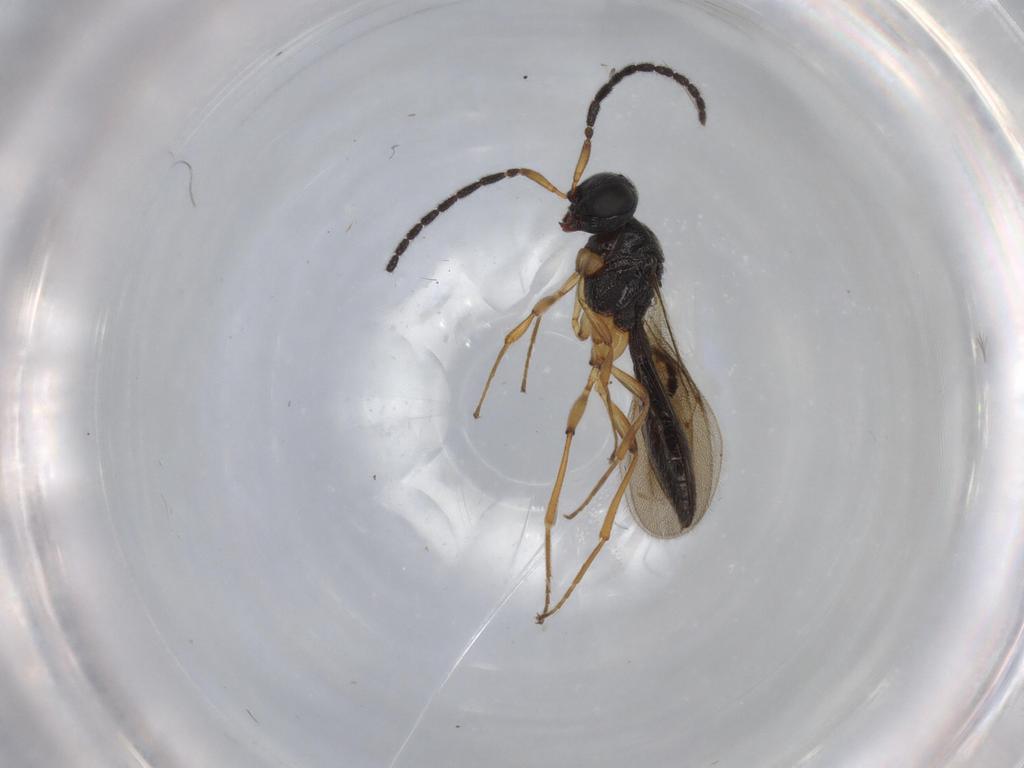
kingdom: Animalia
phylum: Arthropoda
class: Insecta
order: Hymenoptera
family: Scelionidae
